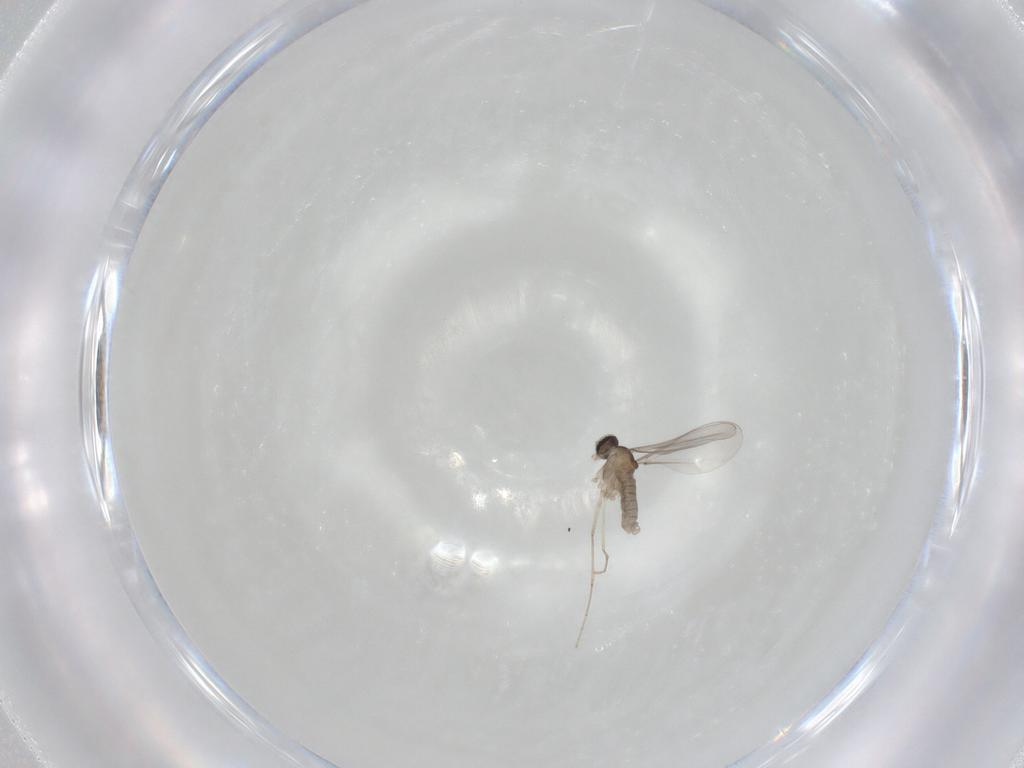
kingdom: Animalia
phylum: Arthropoda
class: Insecta
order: Diptera
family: Cecidomyiidae
